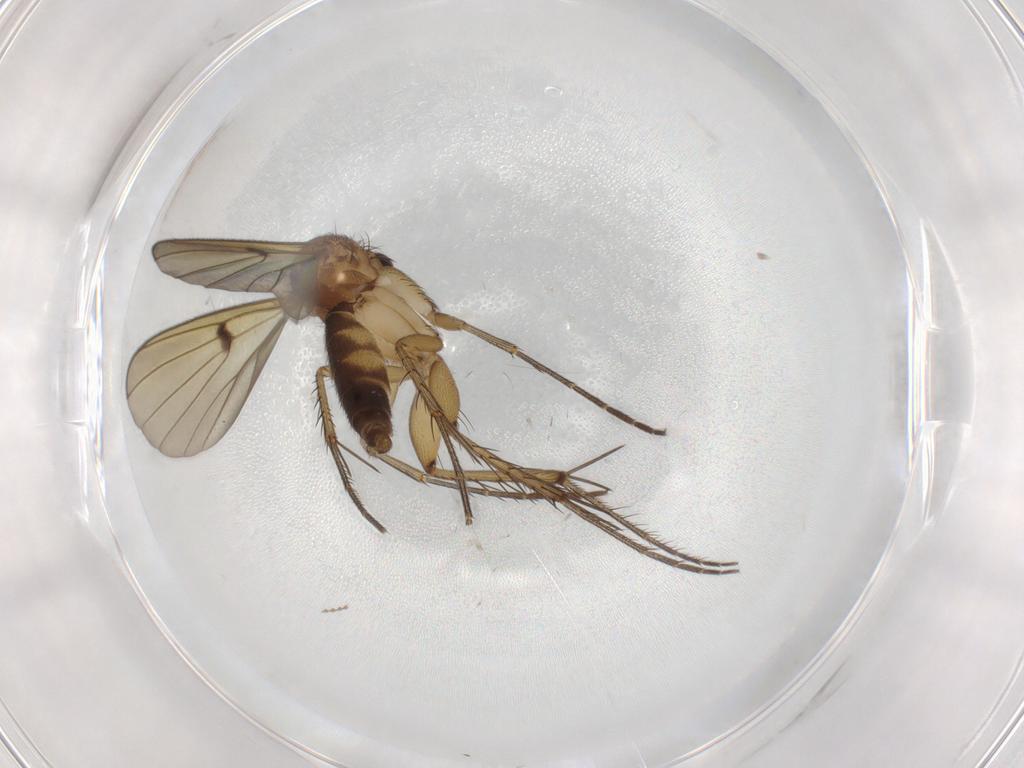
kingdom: Animalia
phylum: Arthropoda
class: Insecta
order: Diptera
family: Mycetophilidae
